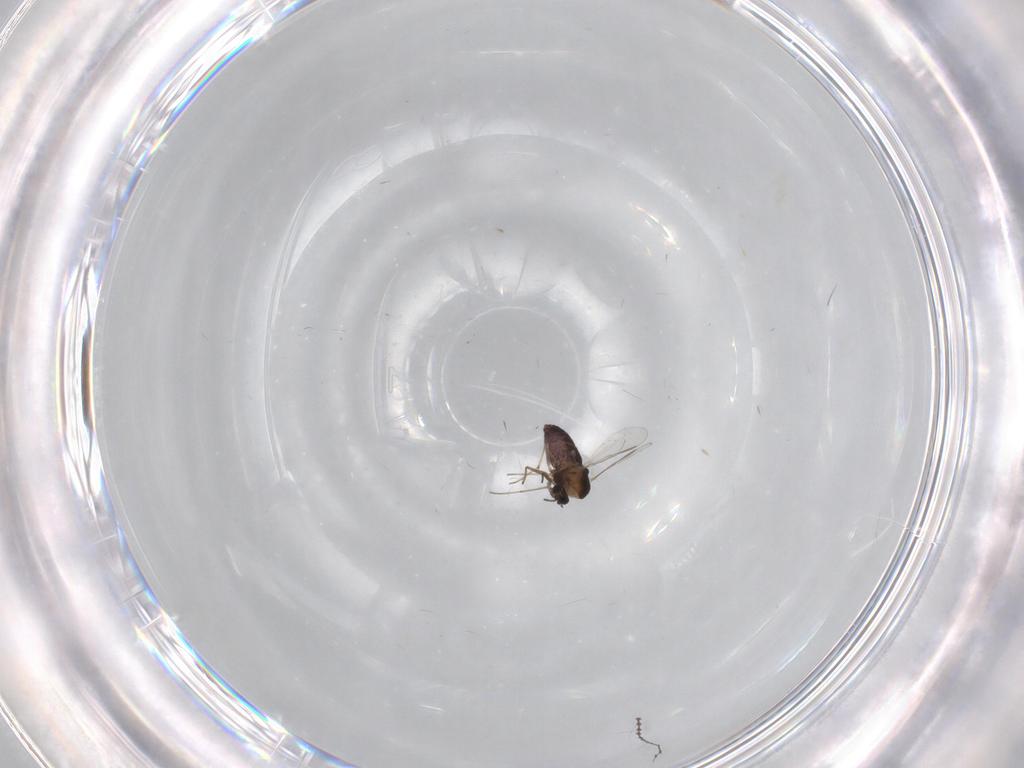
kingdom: Animalia
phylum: Arthropoda
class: Insecta
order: Diptera
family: Chironomidae
